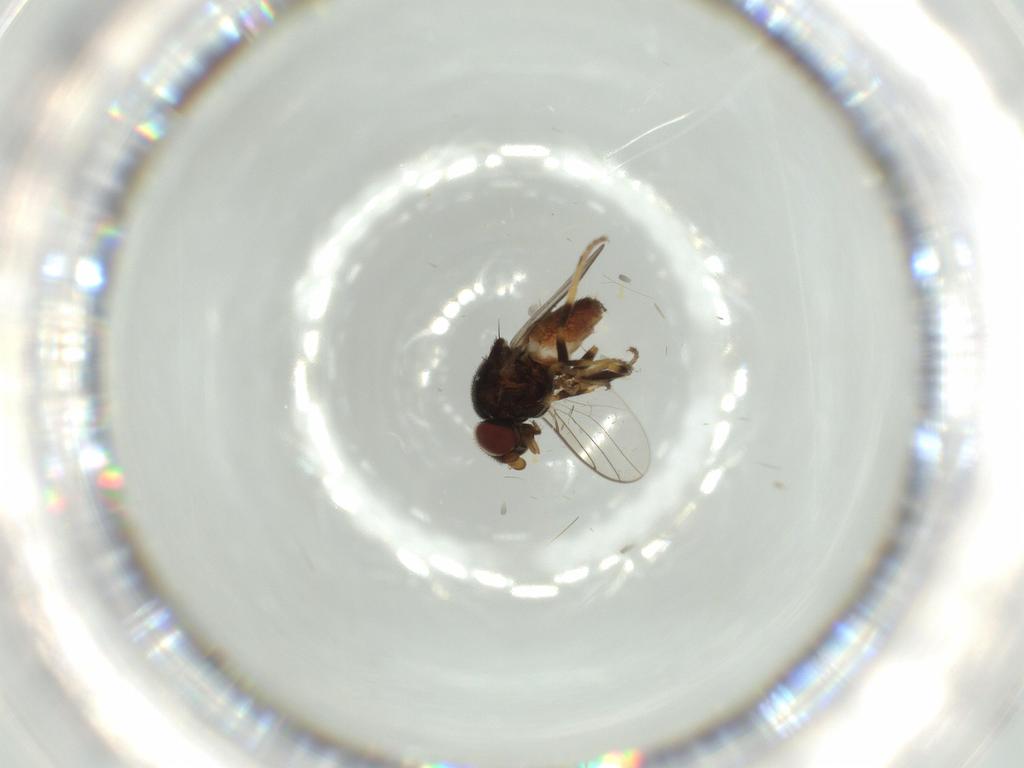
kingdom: Animalia
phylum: Arthropoda
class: Insecta
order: Diptera
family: Chloropidae
